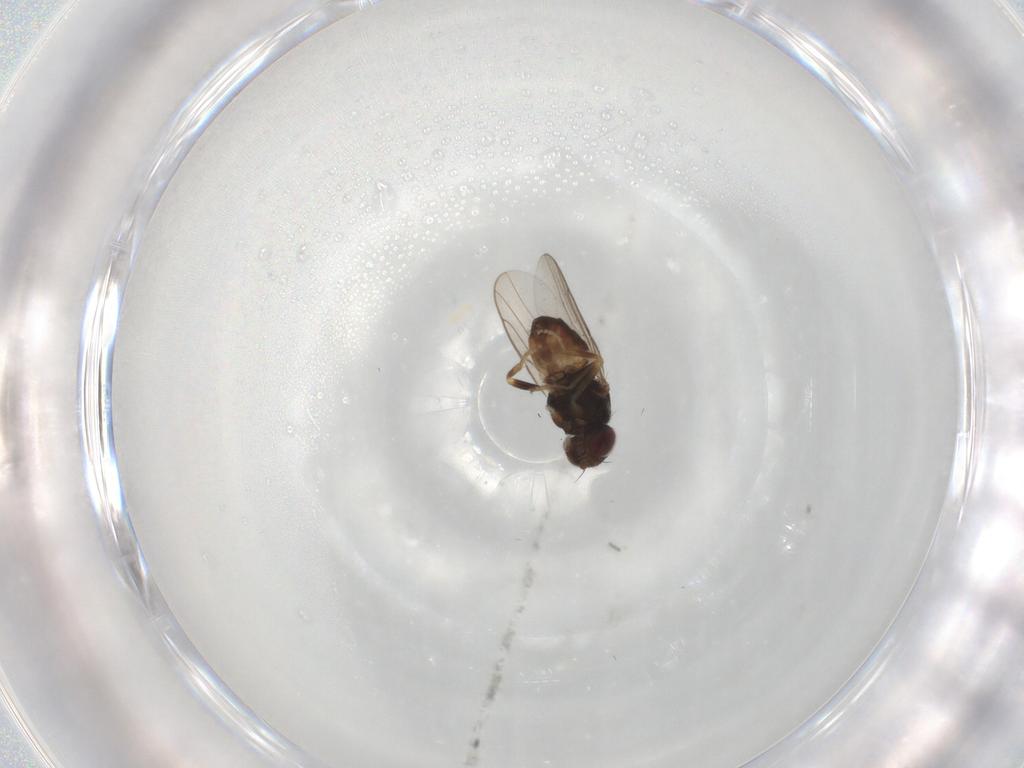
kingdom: Animalia
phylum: Arthropoda
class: Insecta
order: Diptera
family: Chloropidae
